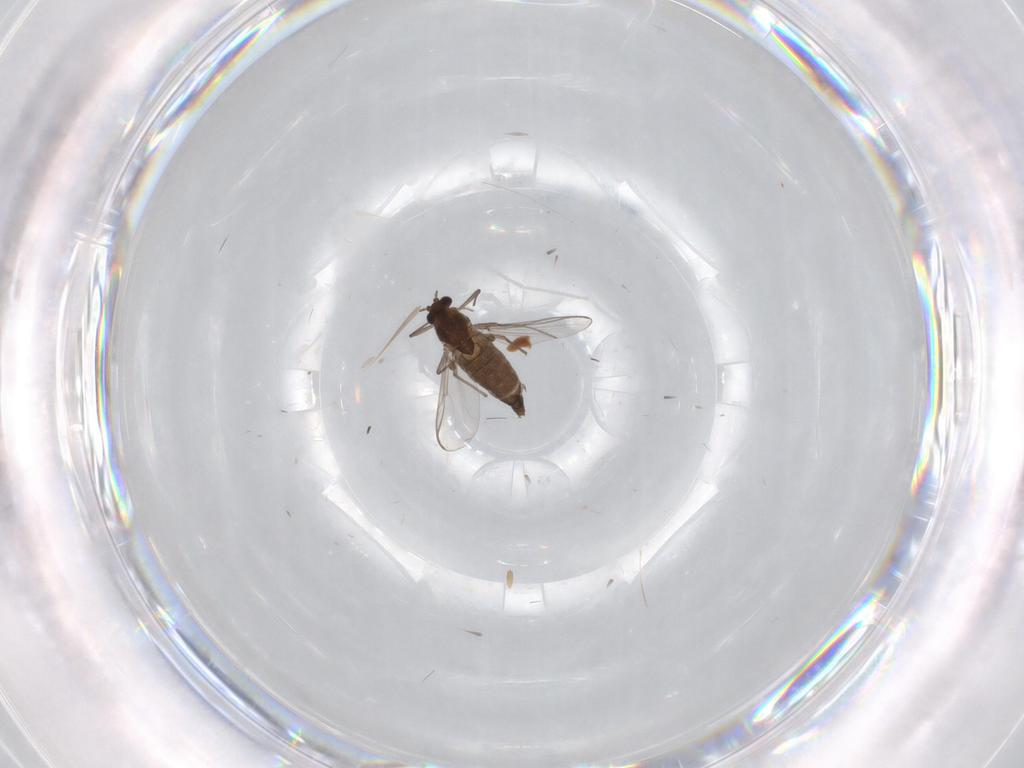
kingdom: Animalia
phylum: Arthropoda
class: Insecta
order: Diptera
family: Chironomidae
